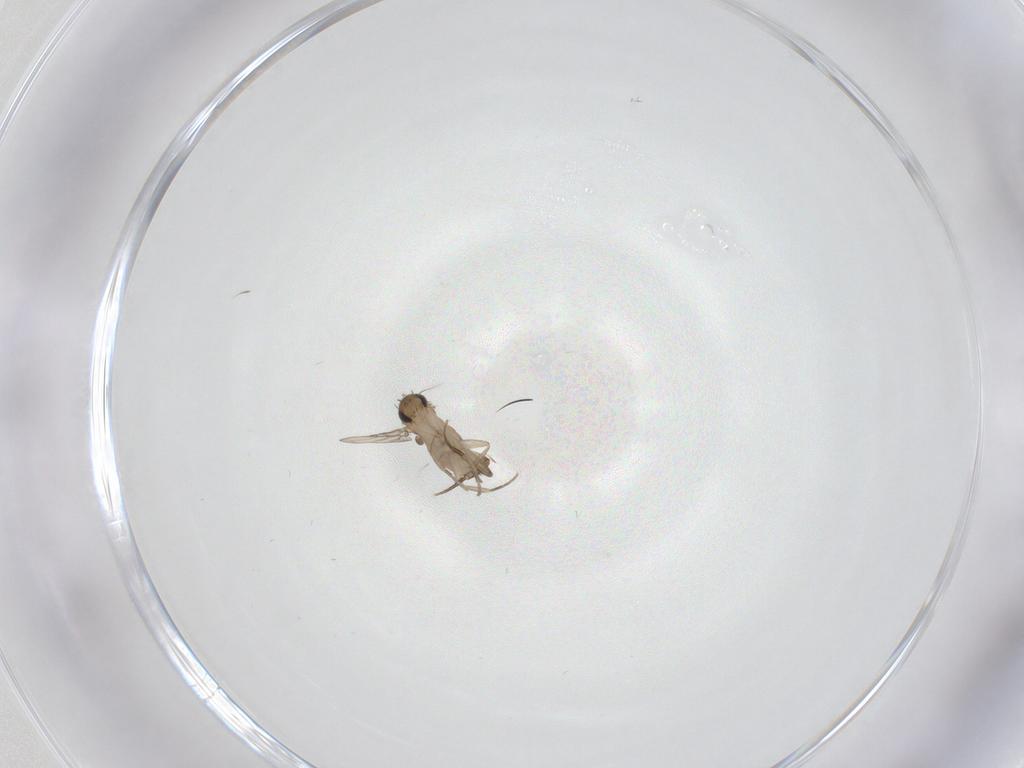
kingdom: Animalia
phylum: Arthropoda
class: Insecta
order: Diptera
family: Phoridae
